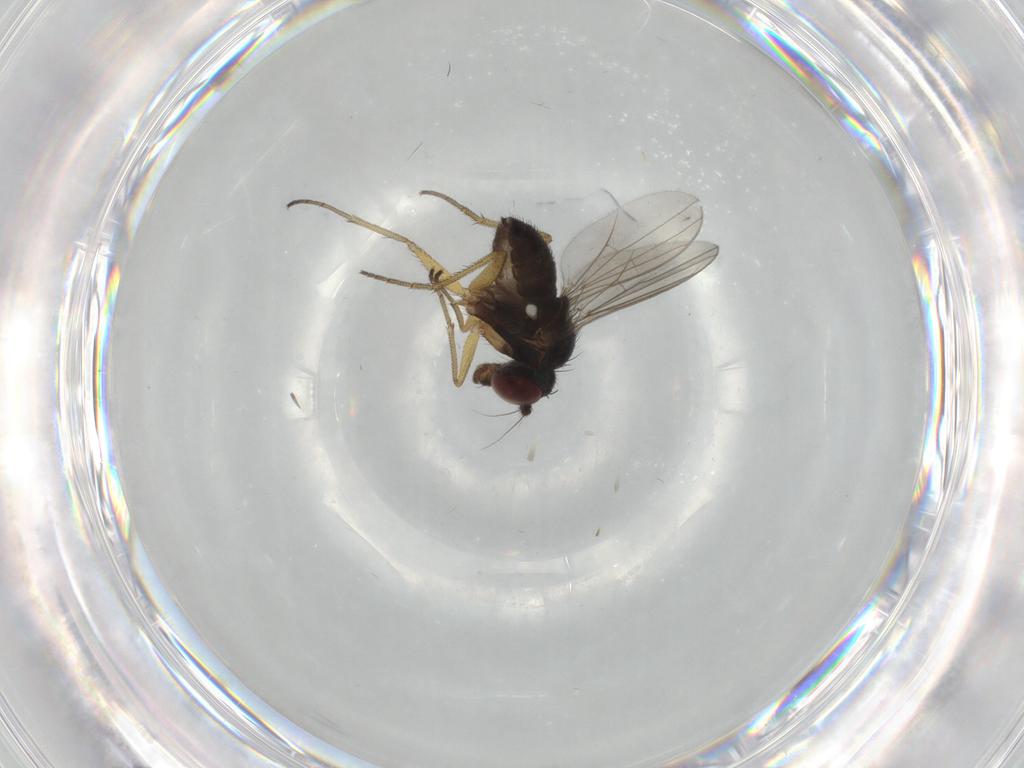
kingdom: Animalia
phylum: Arthropoda
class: Insecta
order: Diptera
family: Dolichopodidae
